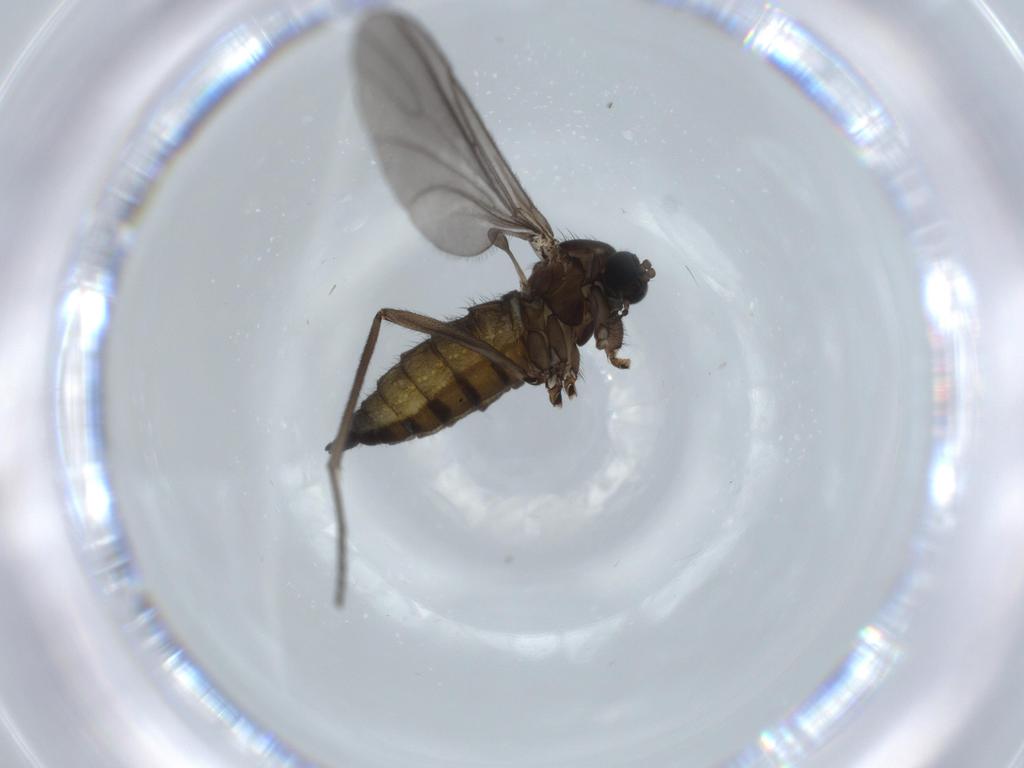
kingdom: Animalia
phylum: Arthropoda
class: Insecta
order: Diptera
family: Sciaridae
